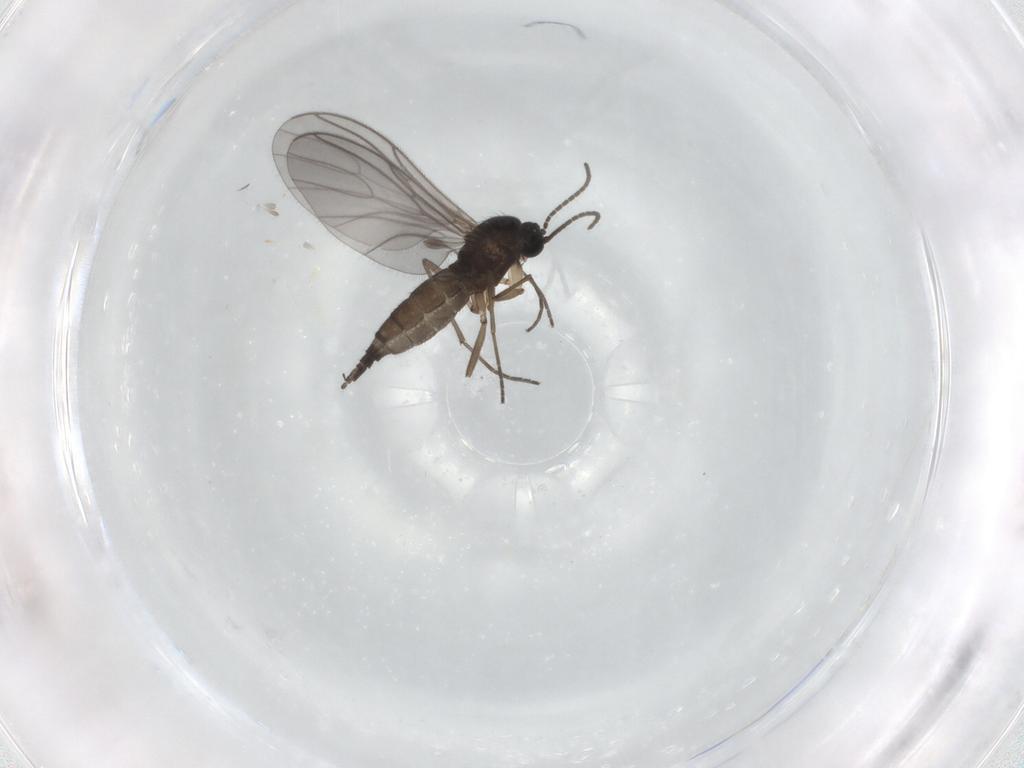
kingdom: Animalia
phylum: Arthropoda
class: Insecta
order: Diptera
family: Sciaridae
